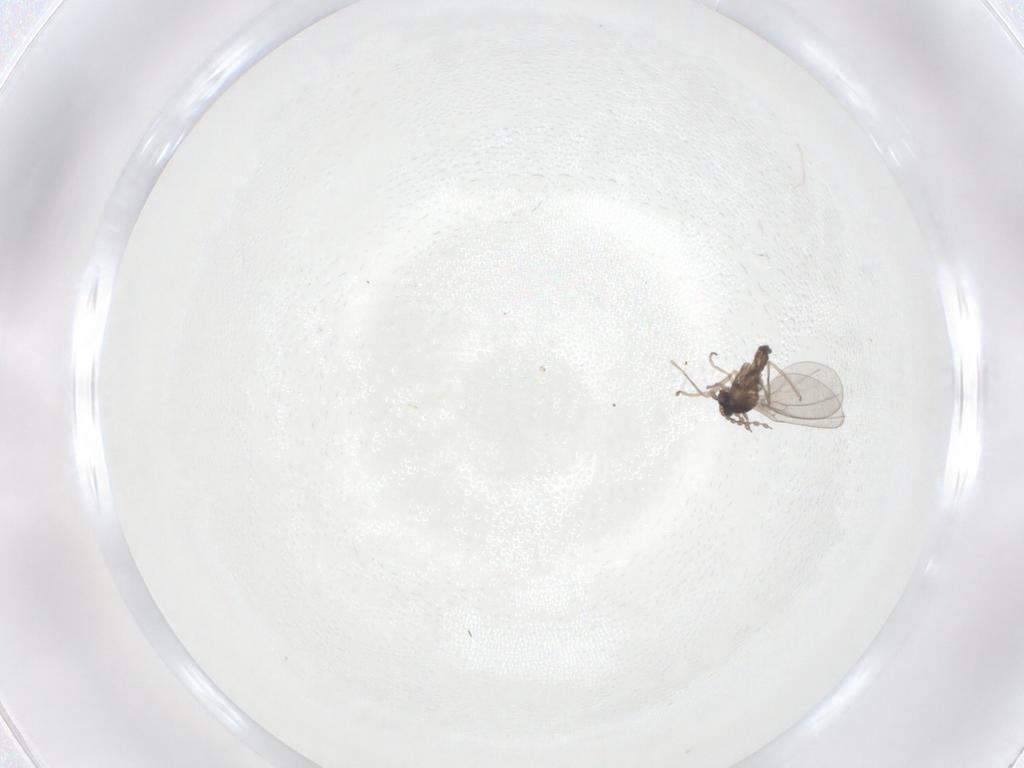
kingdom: Animalia
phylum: Arthropoda
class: Insecta
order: Diptera
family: Cecidomyiidae
